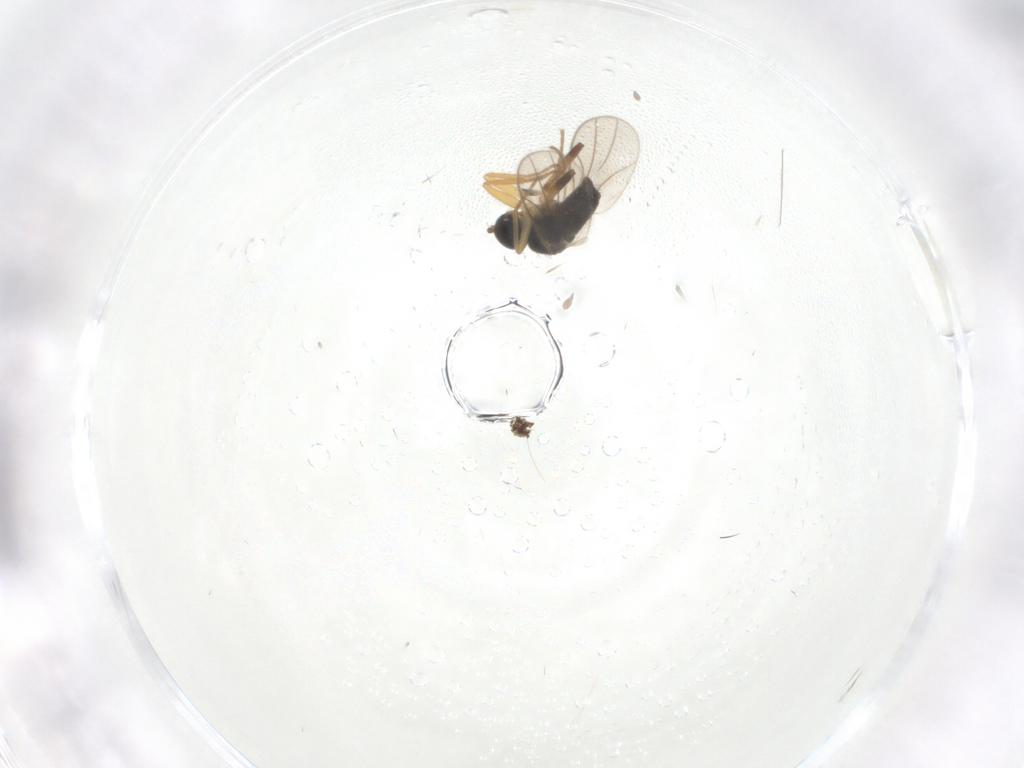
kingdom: Animalia
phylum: Arthropoda
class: Insecta
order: Diptera
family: Hybotidae
